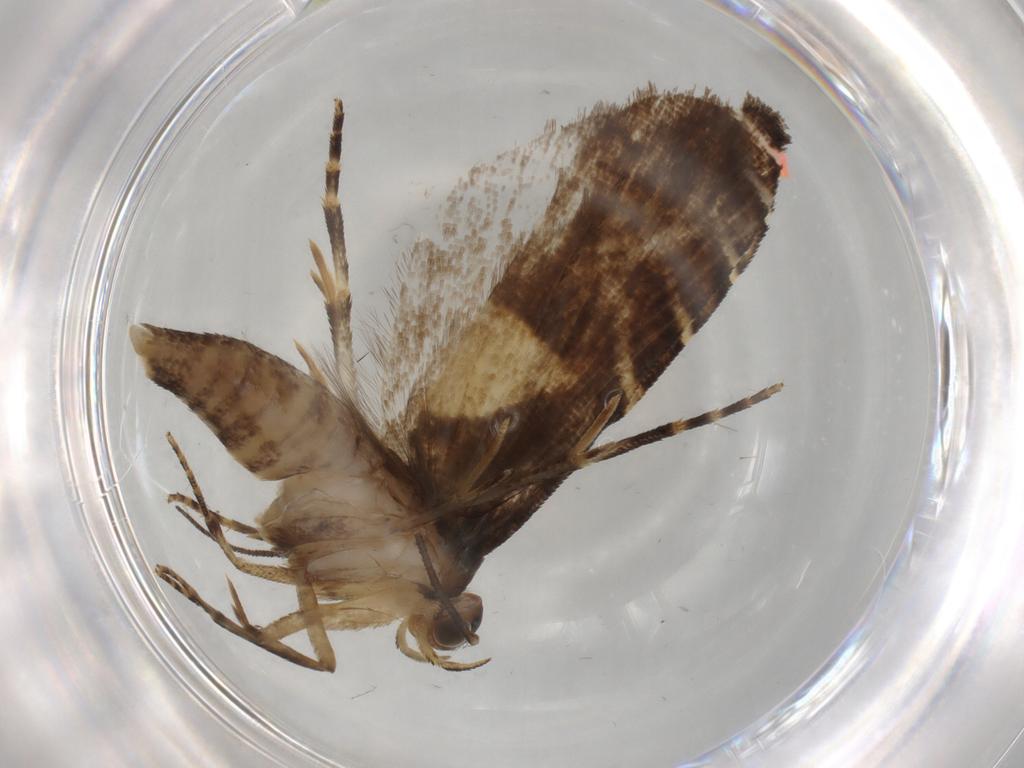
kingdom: Animalia
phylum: Arthropoda
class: Insecta
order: Lepidoptera
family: Glyphipterigidae
